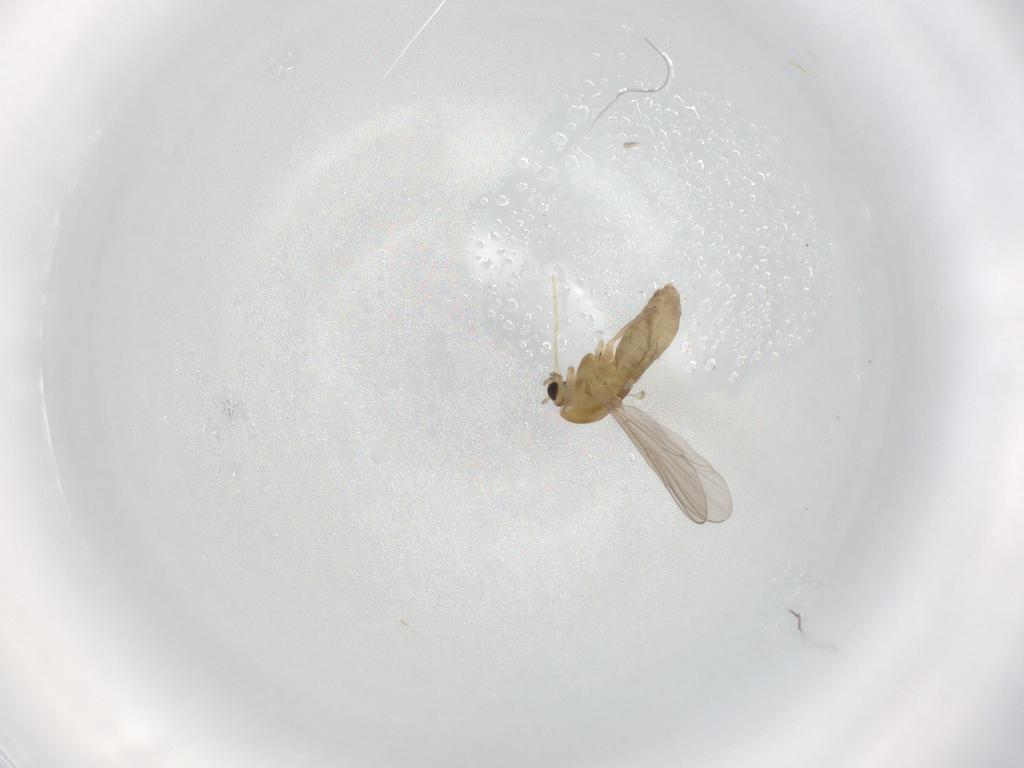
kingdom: Animalia
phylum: Arthropoda
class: Insecta
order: Diptera
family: Chironomidae
